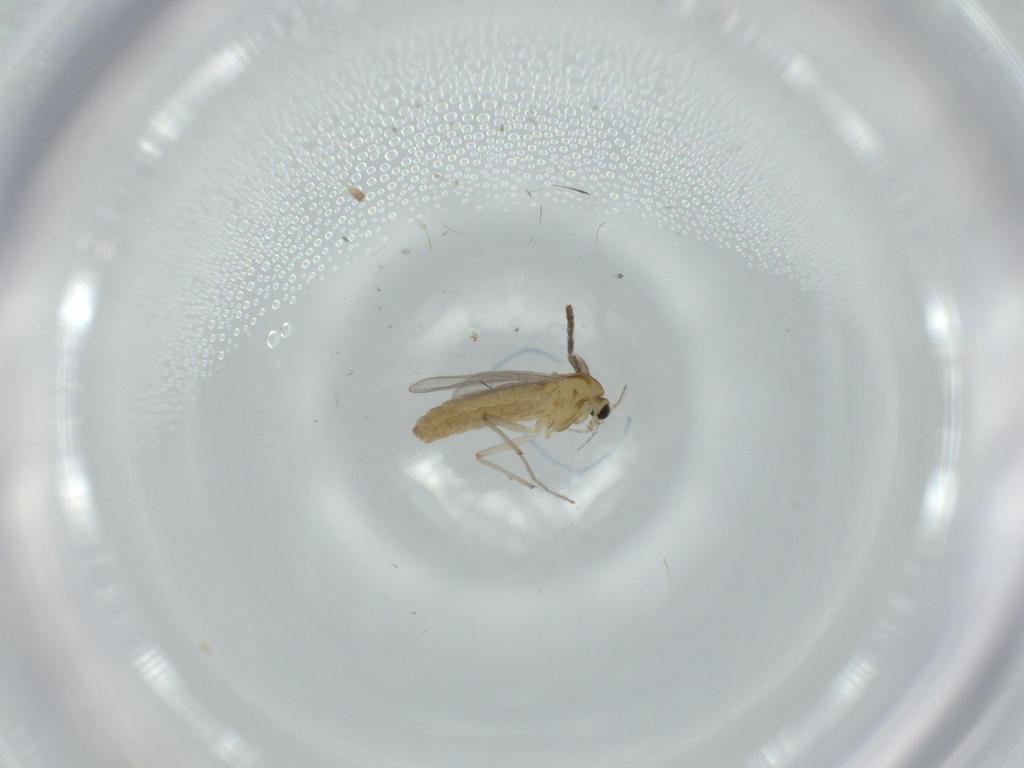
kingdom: Animalia
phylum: Arthropoda
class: Insecta
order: Diptera
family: Chironomidae
